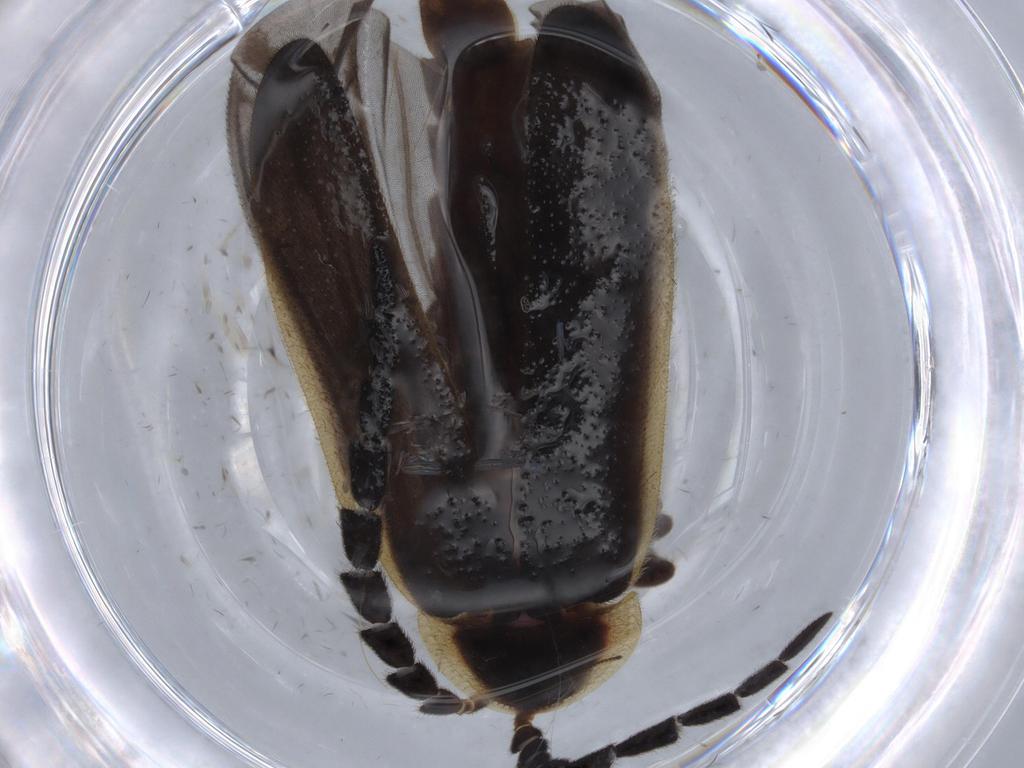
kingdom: Animalia
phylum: Arthropoda
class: Insecta
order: Coleoptera
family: Lampyridae
